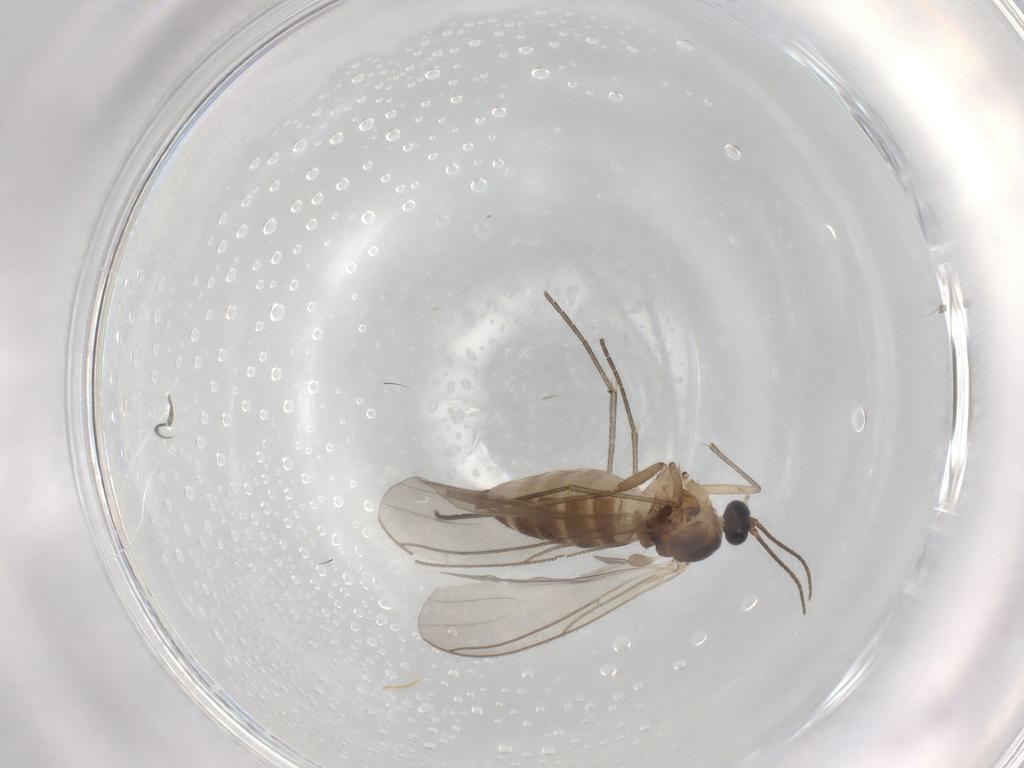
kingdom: Animalia
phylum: Arthropoda
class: Insecta
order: Diptera
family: Sciaridae
